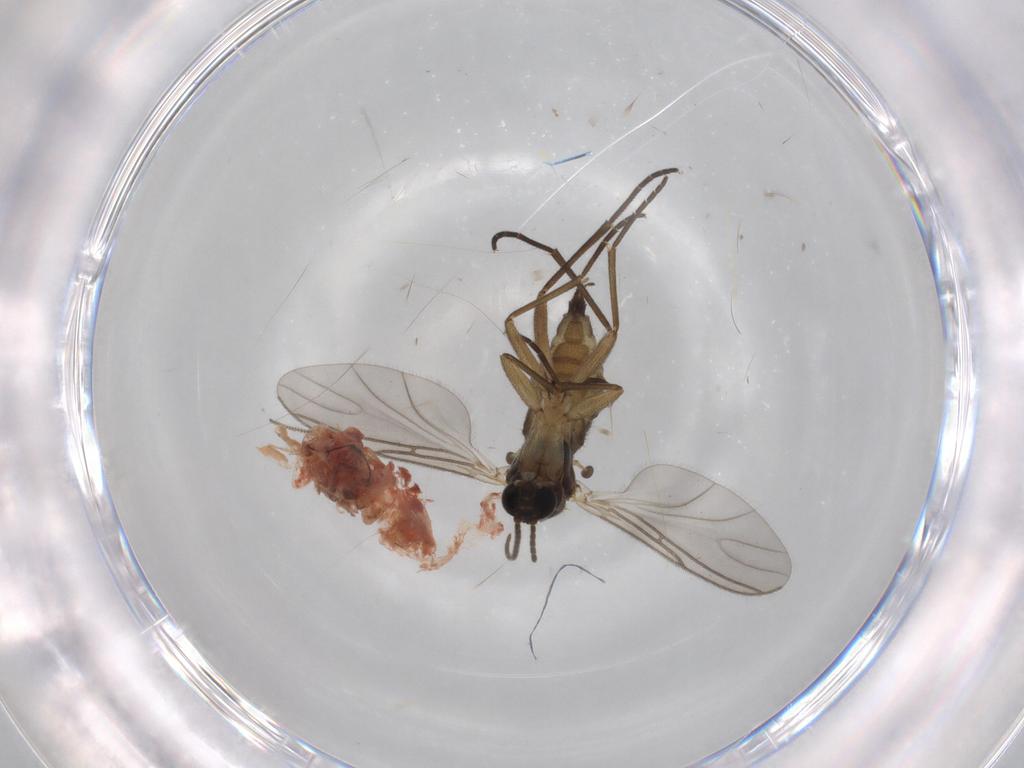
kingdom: Animalia
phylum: Arthropoda
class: Insecta
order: Diptera
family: Sciaridae
